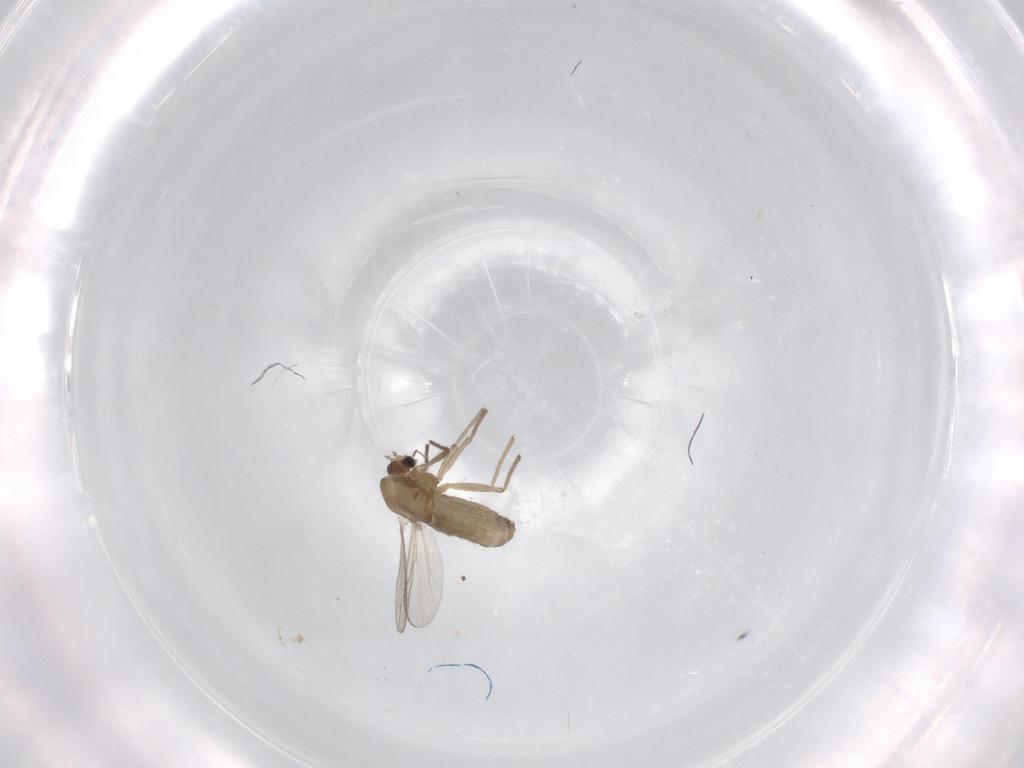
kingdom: Animalia
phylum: Arthropoda
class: Insecta
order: Diptera
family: Chironomidae
